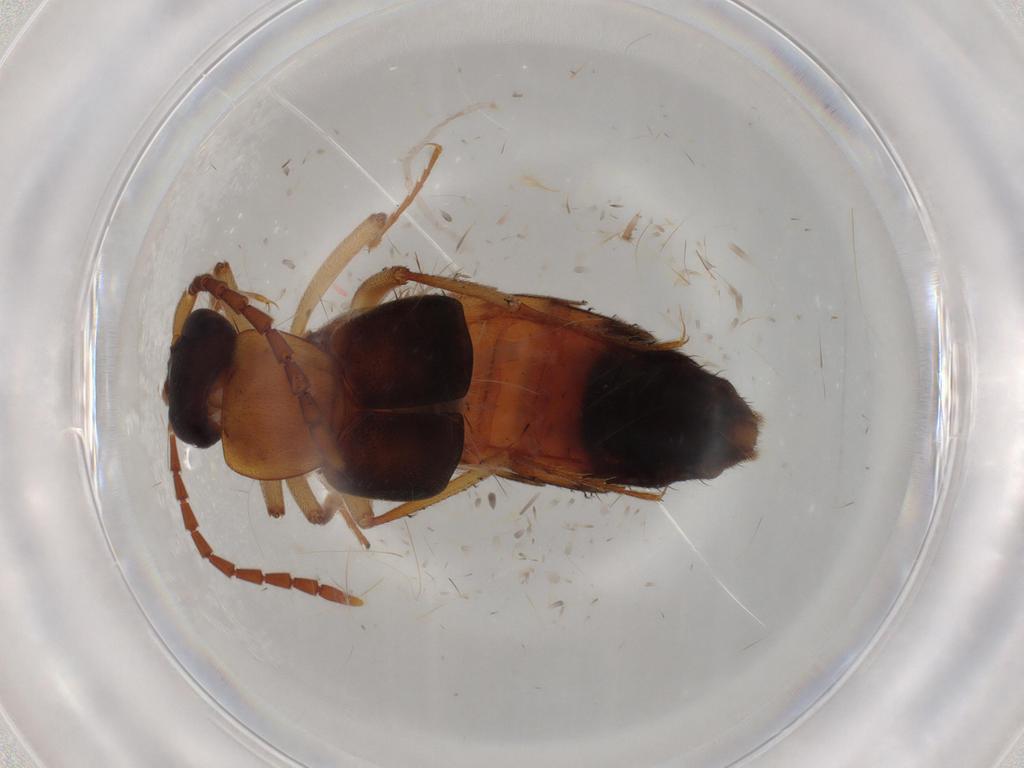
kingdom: Animalia
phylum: Arthropoda
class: Insecta
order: Coleoptera
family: Staphylinidae
